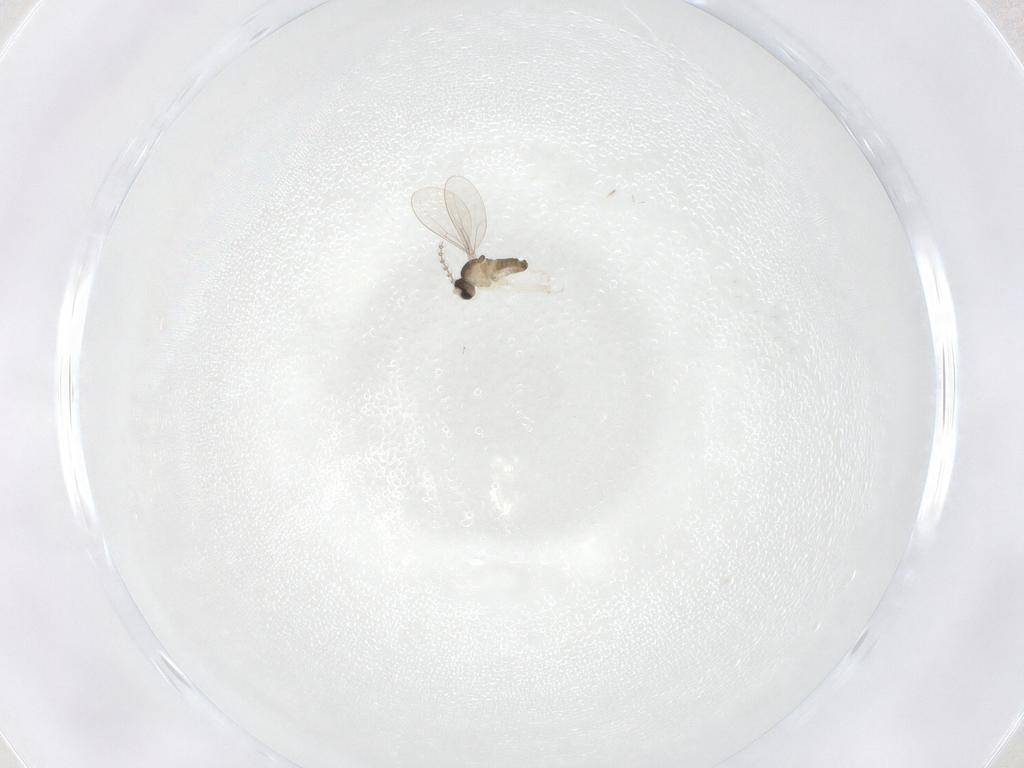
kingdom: Animalia
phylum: Arthropoda
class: Insecta
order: Diptera
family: Cecidomyiidae
